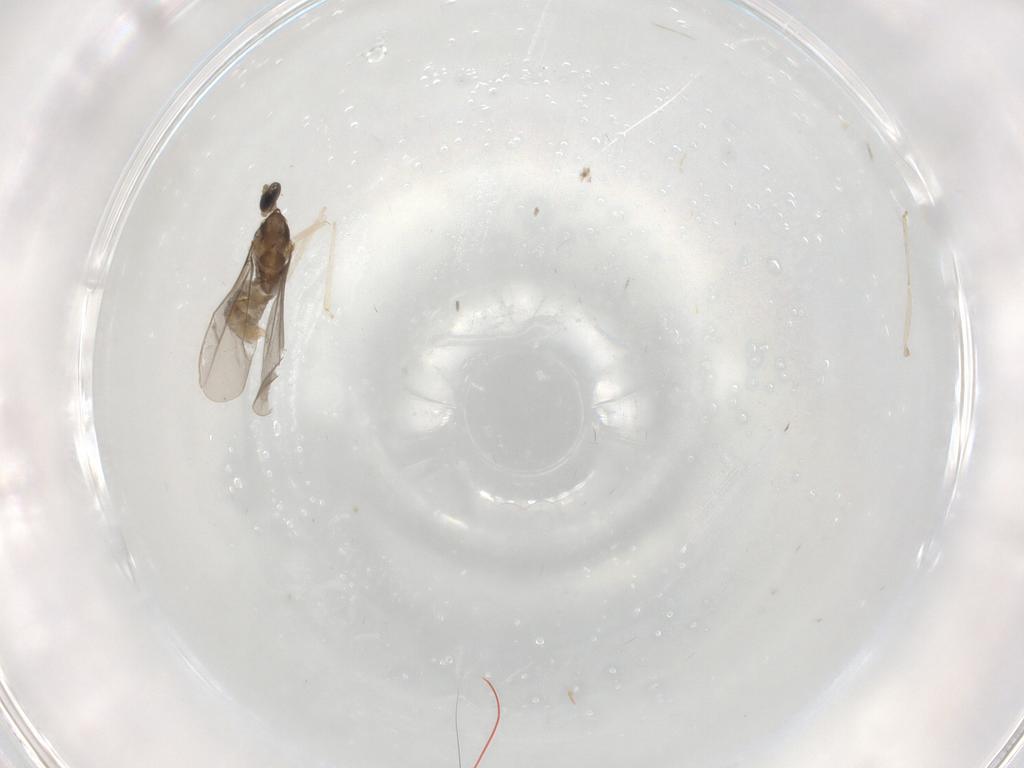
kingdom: Animalia
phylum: Arthropoda
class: Insecta
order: Diptera
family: Cecidomyiidae
